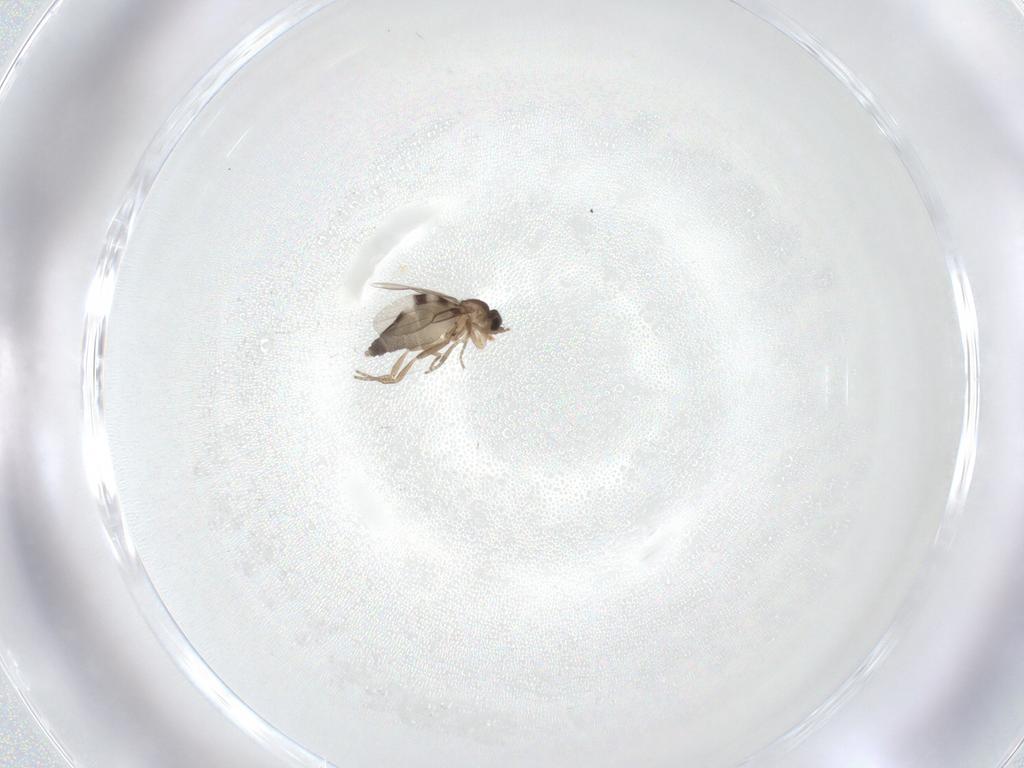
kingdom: Animalia
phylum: Arthropoda
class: Insecta
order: Diptera
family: Phoridae
